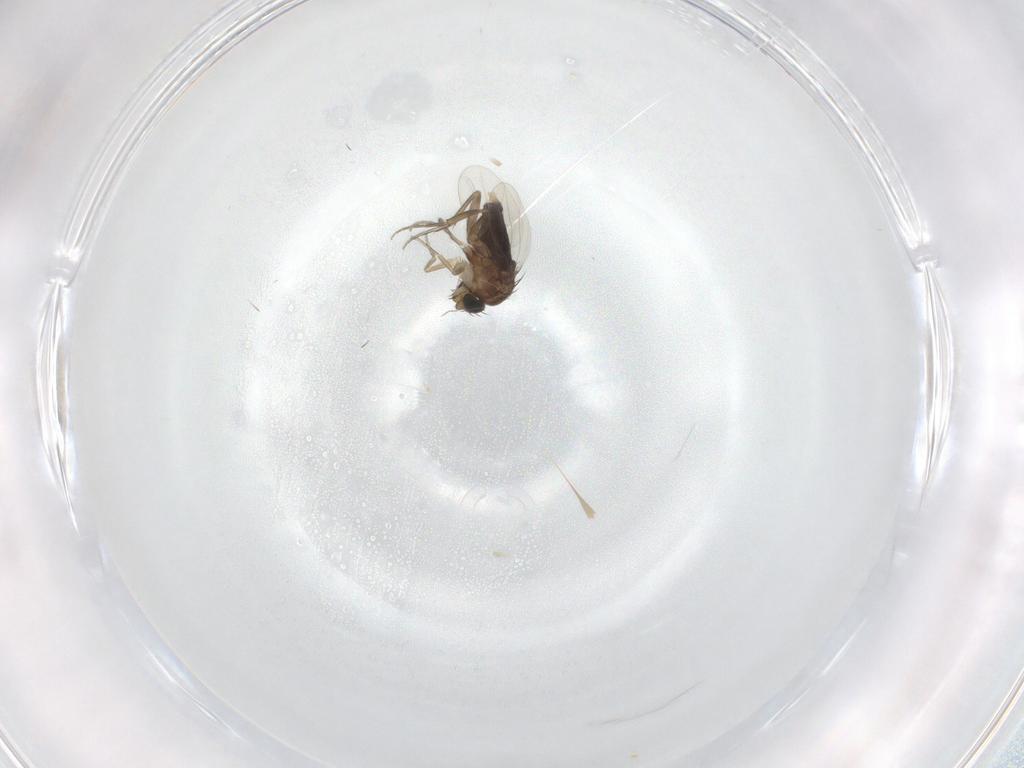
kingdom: Animalia
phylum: Arthropoda
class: Insecta
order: Diptera
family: Phoridae
